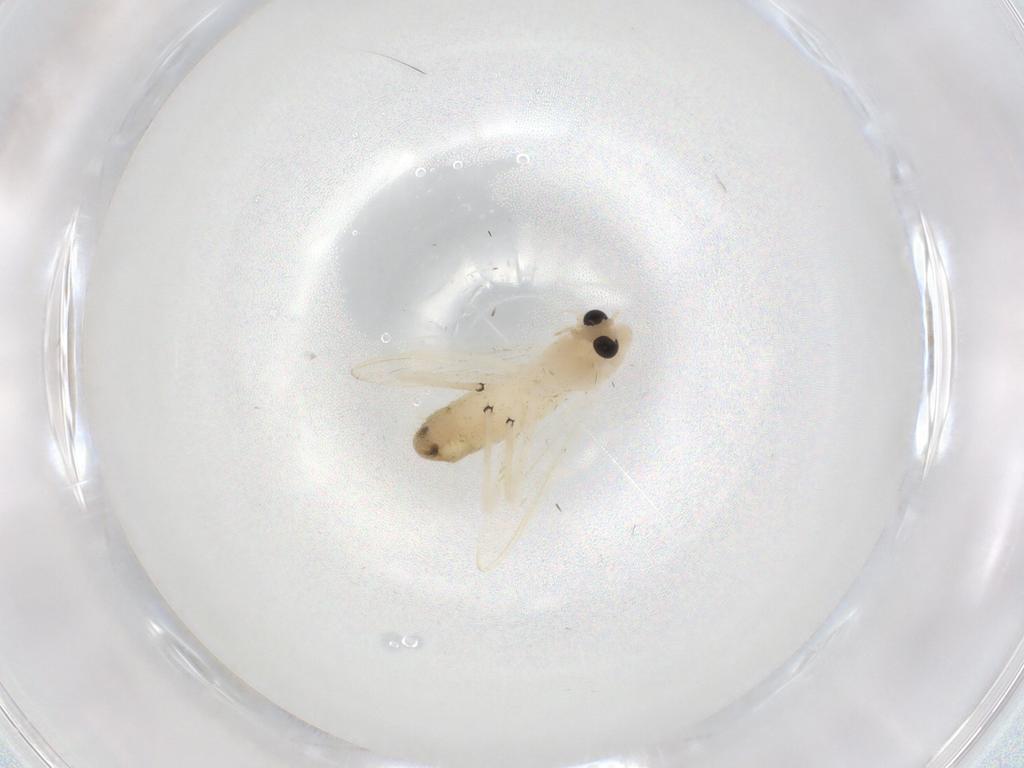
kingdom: Animalia
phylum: Arthropoda
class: Insecta
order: Diptera
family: Chironomidae
